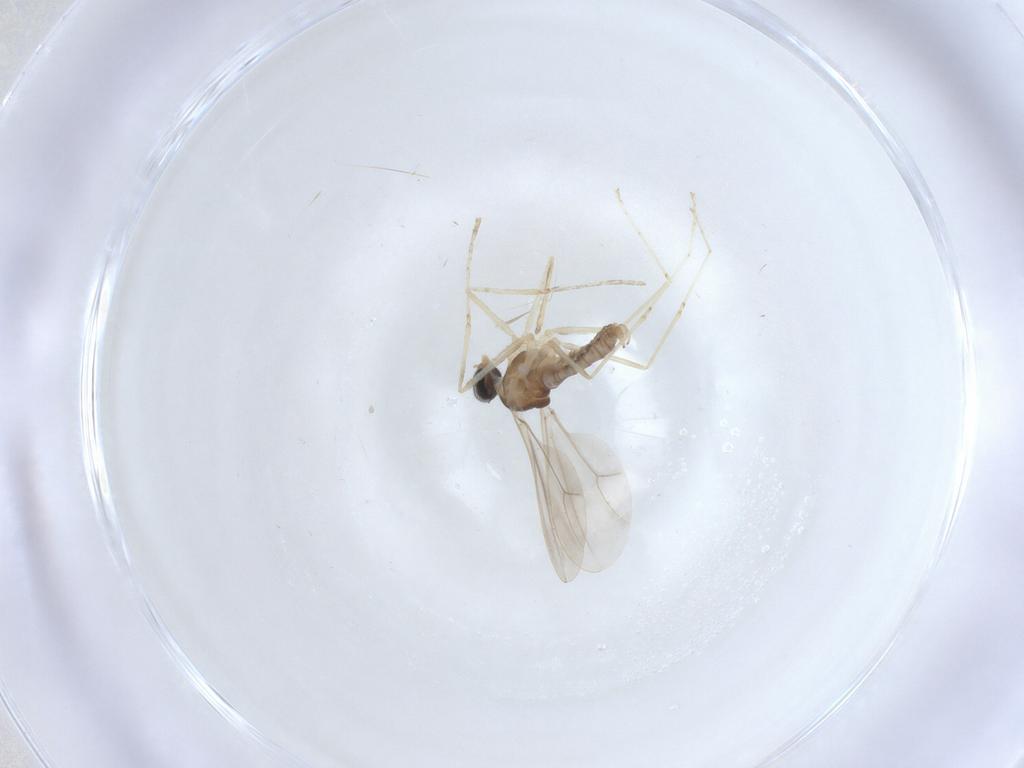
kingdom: Animalia
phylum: Arthropoda
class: Insecta
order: Diptera
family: Cecidomyiidae
